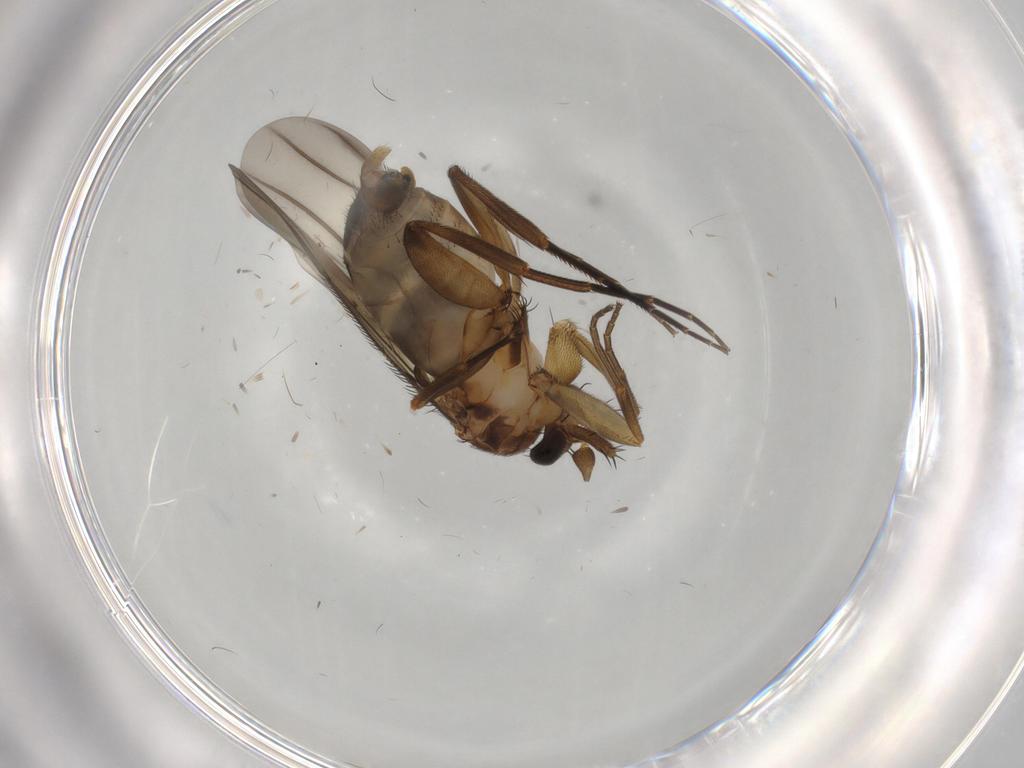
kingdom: Animalia
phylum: Arthropoda
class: Insecta
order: Diptera
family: Phoridae
